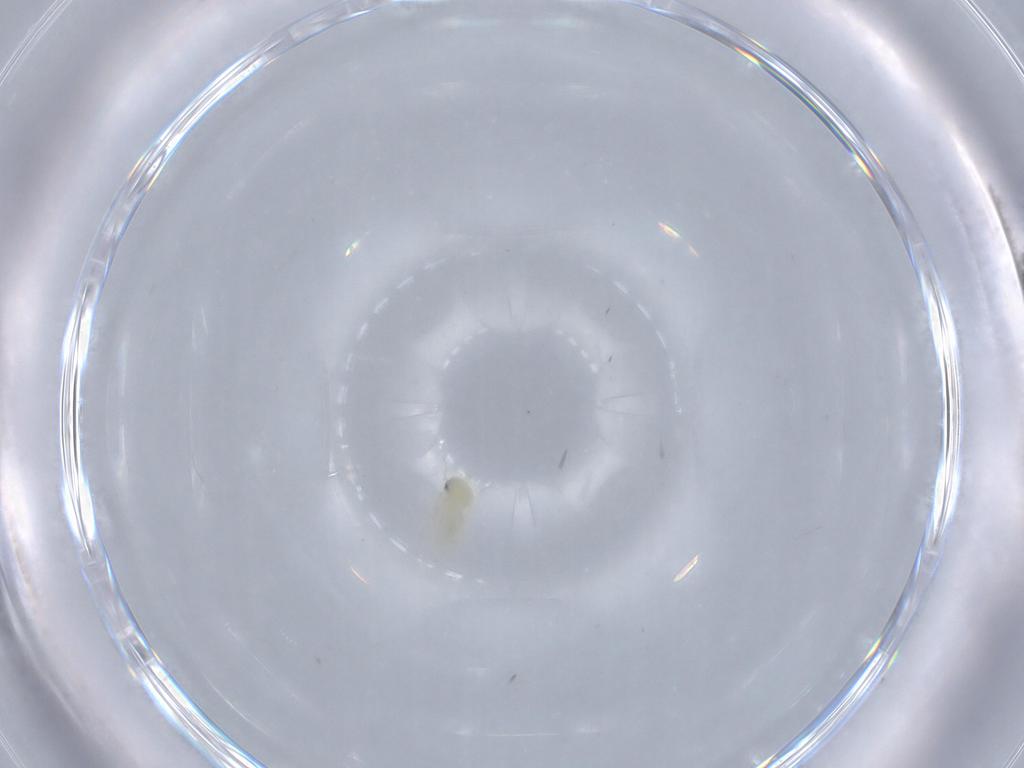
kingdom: Animalia
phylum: Arthropoda
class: Insecta
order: Hemiptera
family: Aleyrodidae
